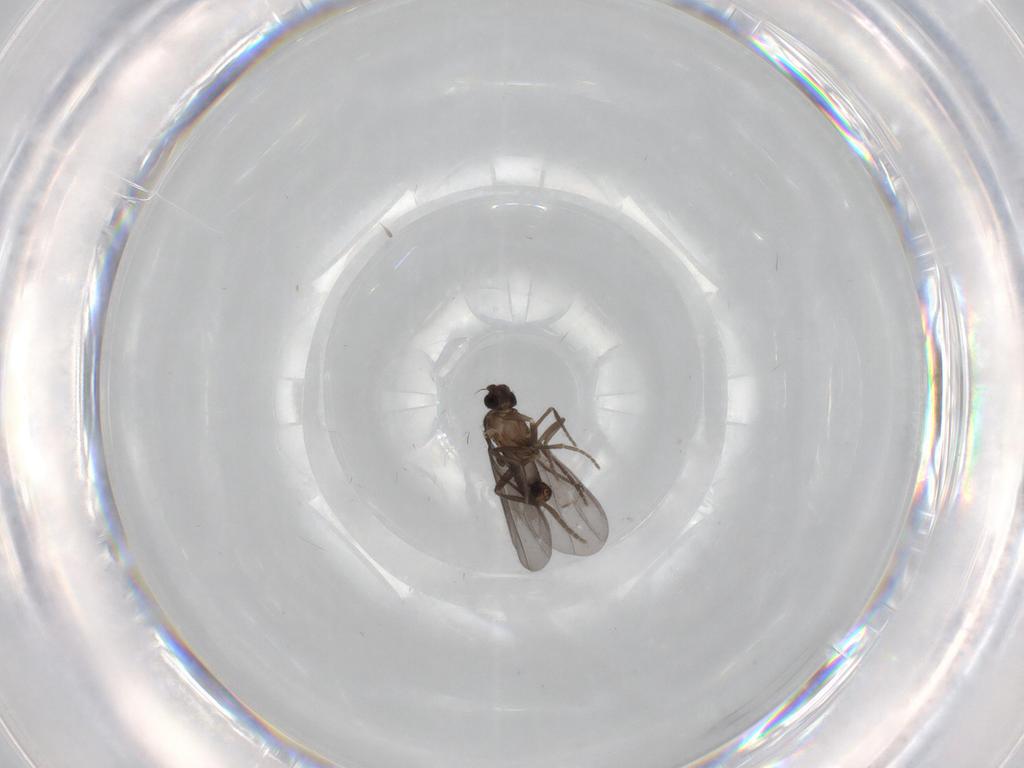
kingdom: Animalia
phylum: Arthropoda
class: Insecta
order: Diptera
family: Phoridae
